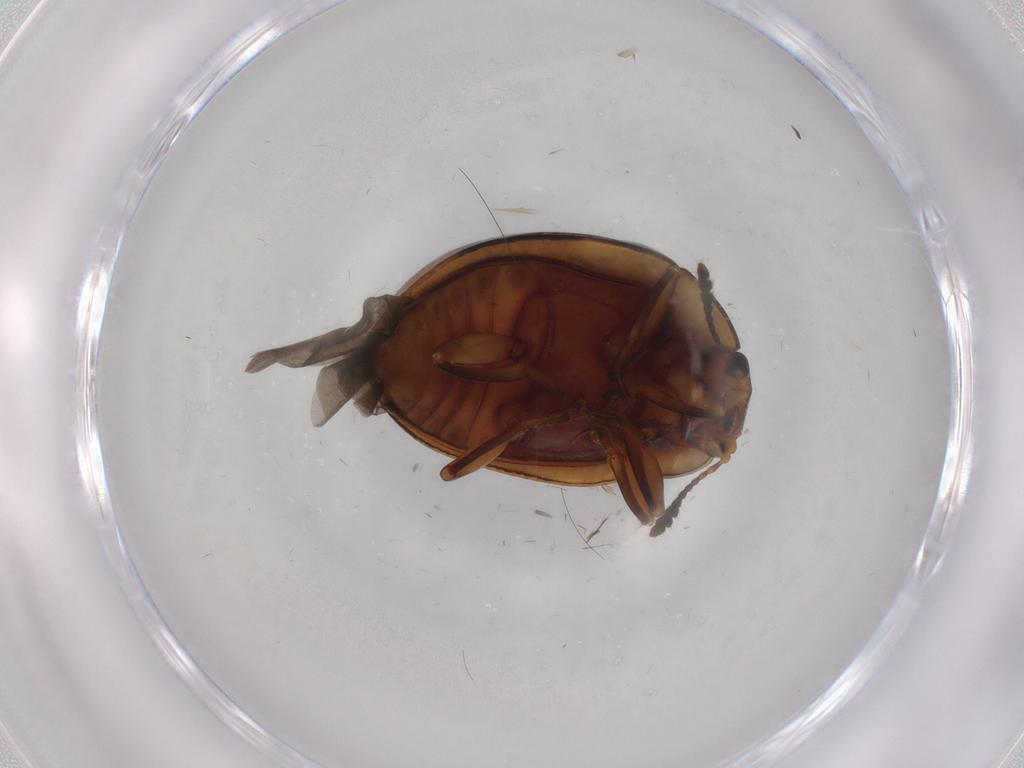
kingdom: Animalia
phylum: Arthropoda
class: Insecta
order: Coleoptera
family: Erotylidae
